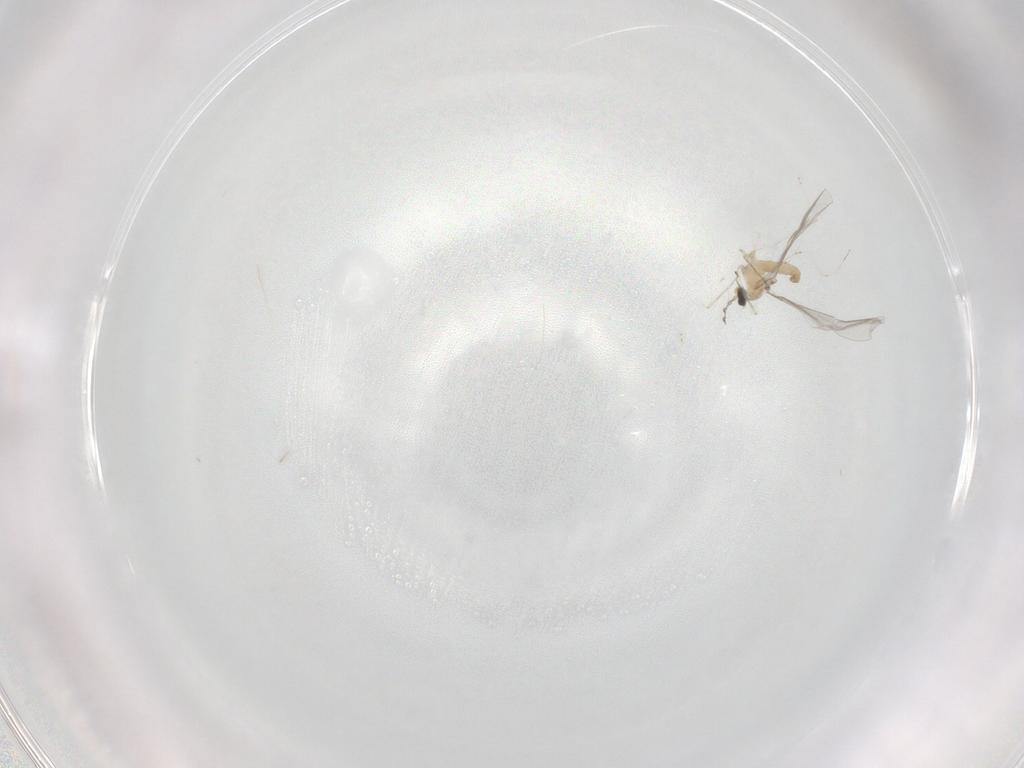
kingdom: Animalia
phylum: Arthropoda
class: Insecta
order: Diptera
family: Cecidomyiidae
